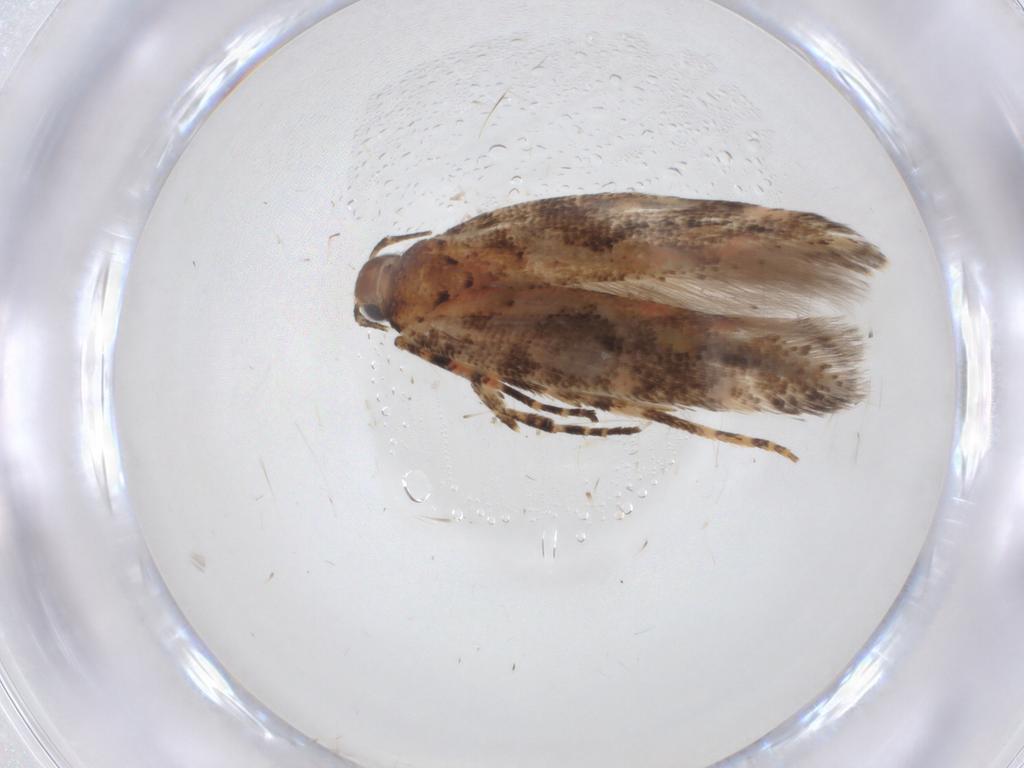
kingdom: Animalia
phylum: Arthropoda
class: Insecta
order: Lepidoptera
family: Gelechiidae
